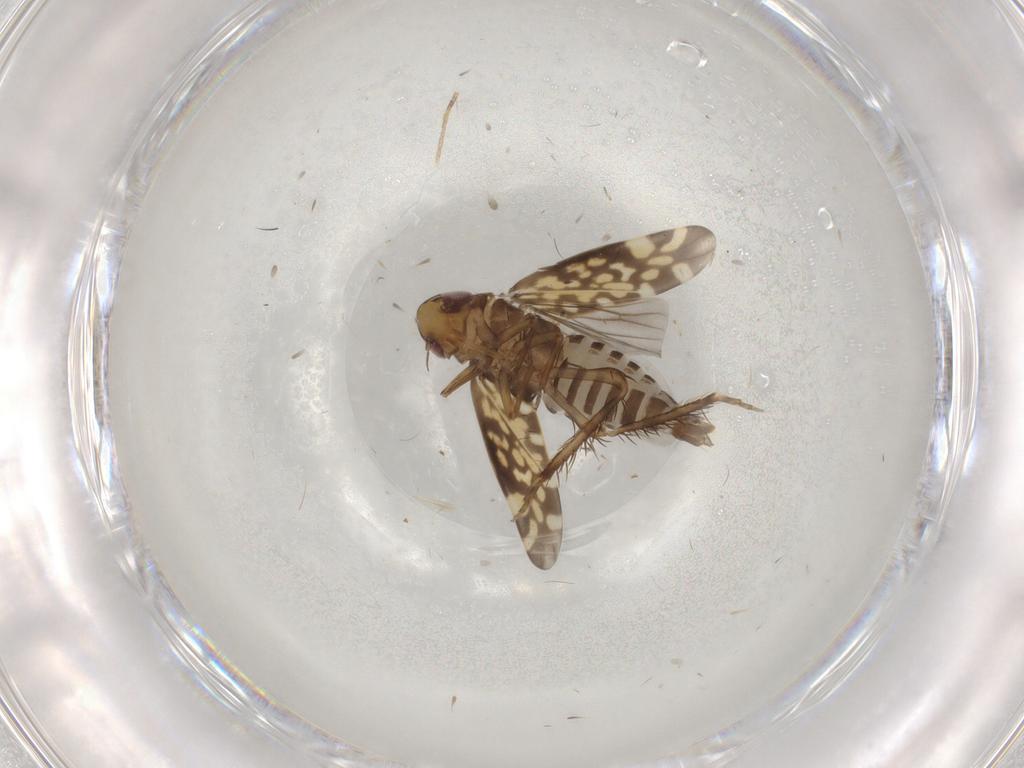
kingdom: Animalia
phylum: Arthropoda
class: Insecta
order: Hemiptera
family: Cicadellidae
